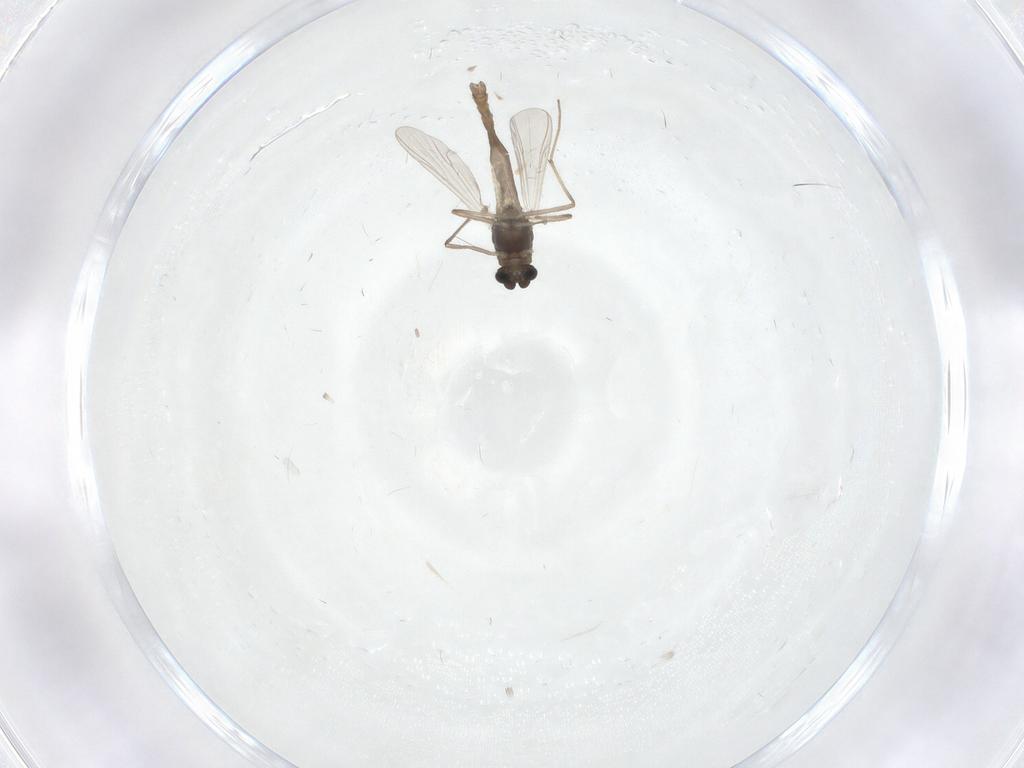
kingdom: Animalia
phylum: Arthropoda
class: Insecta
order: Diptera
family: Chironomidae
